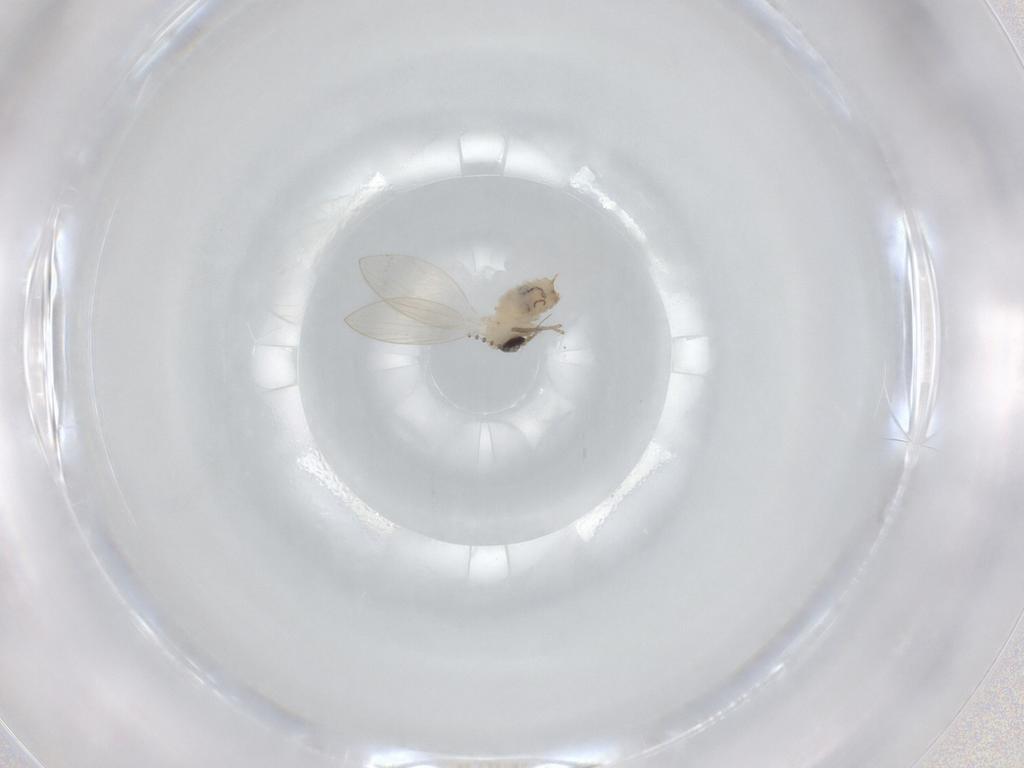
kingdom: Animalia
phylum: Arthropoda
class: Insecta
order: Diptera
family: Psychodidae
